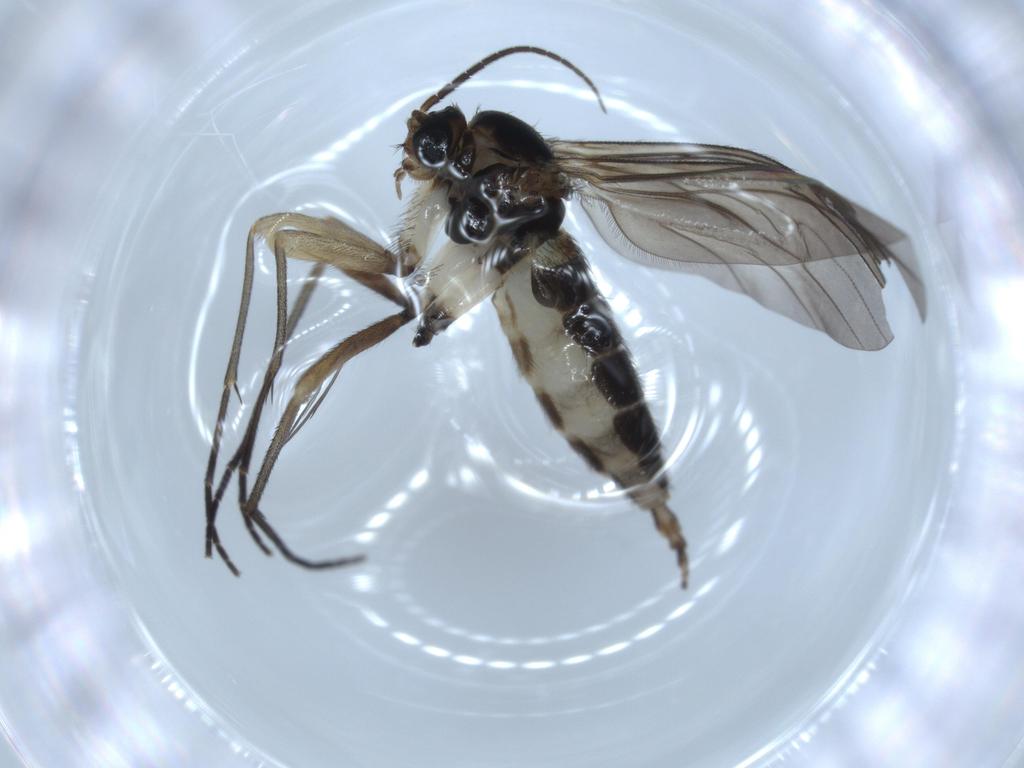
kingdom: Animalia
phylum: Arthropoda
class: Insecta
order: Diptera
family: Sciaridae
